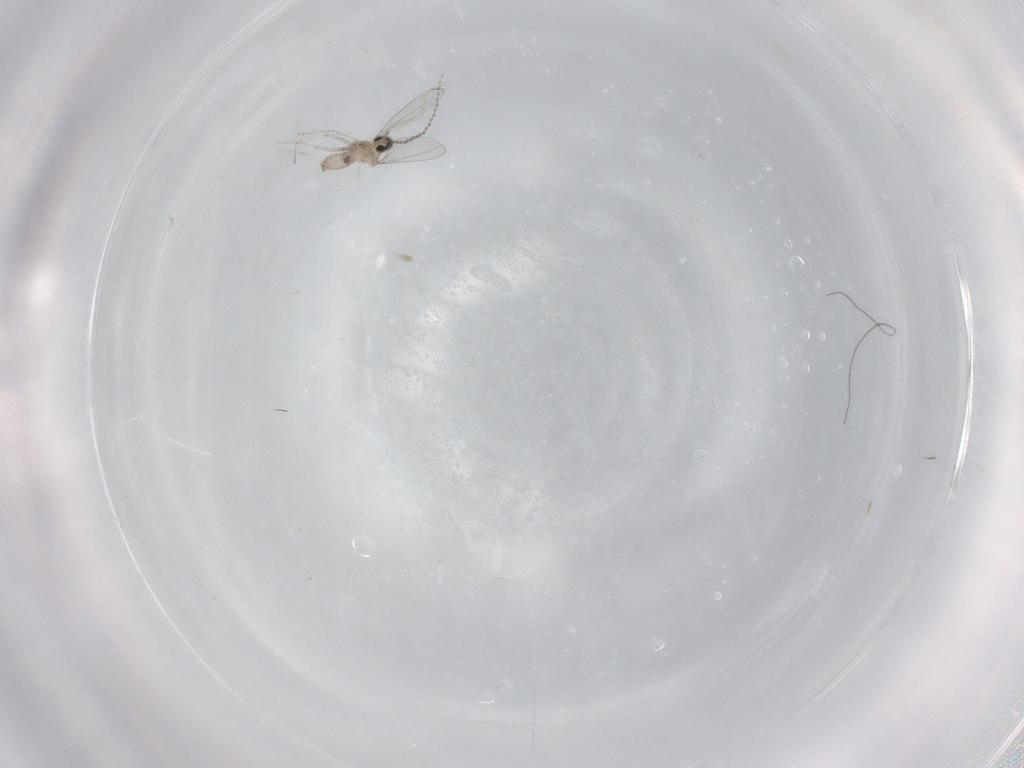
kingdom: Animalia
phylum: Arthropoda
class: Insecta
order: Diptera
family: Cecidomyiidae
